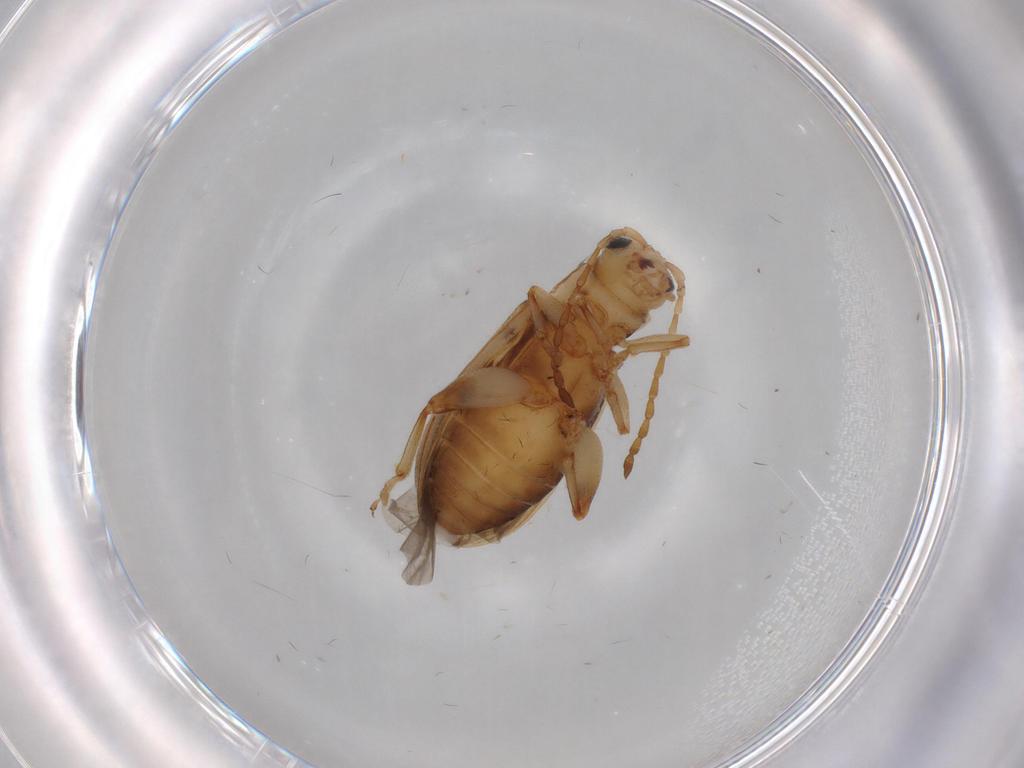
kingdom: Animalia
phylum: Arthropoda
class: Insecta
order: Coleoptera
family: Chrysomelidae
